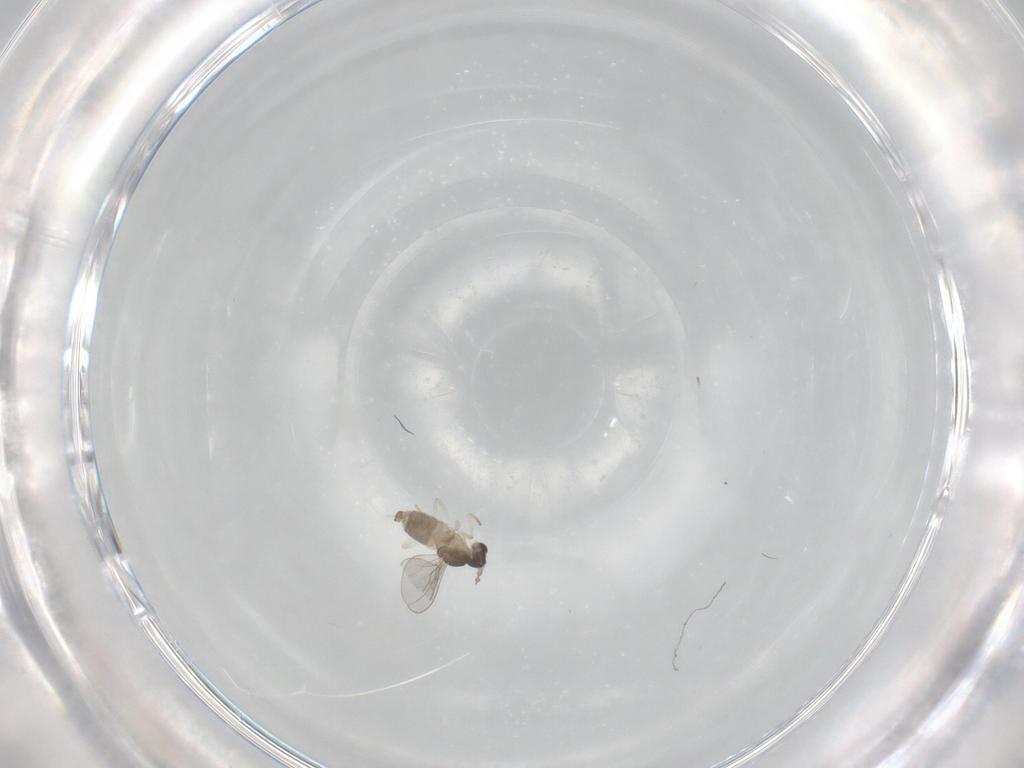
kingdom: Animalia
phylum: Arthropoda
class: Insecta
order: Diptera
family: Cecidomyiidae
